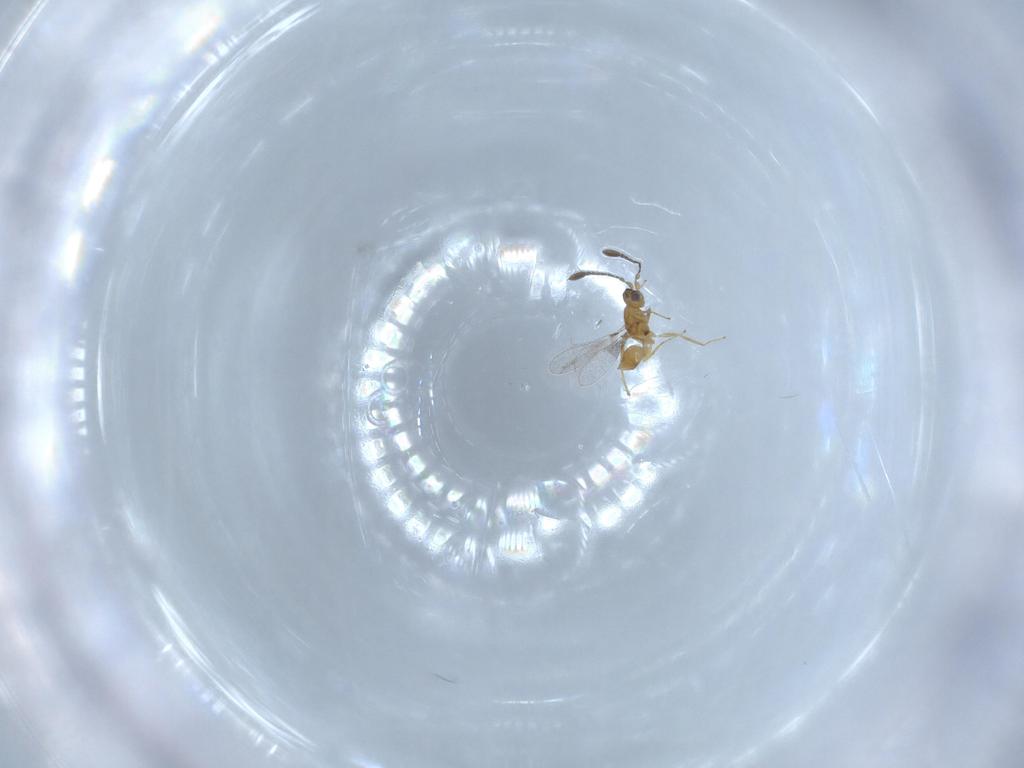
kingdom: Animalia
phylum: Arthropoda
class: Insecta
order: Hymenoptera
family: Mymaridae
